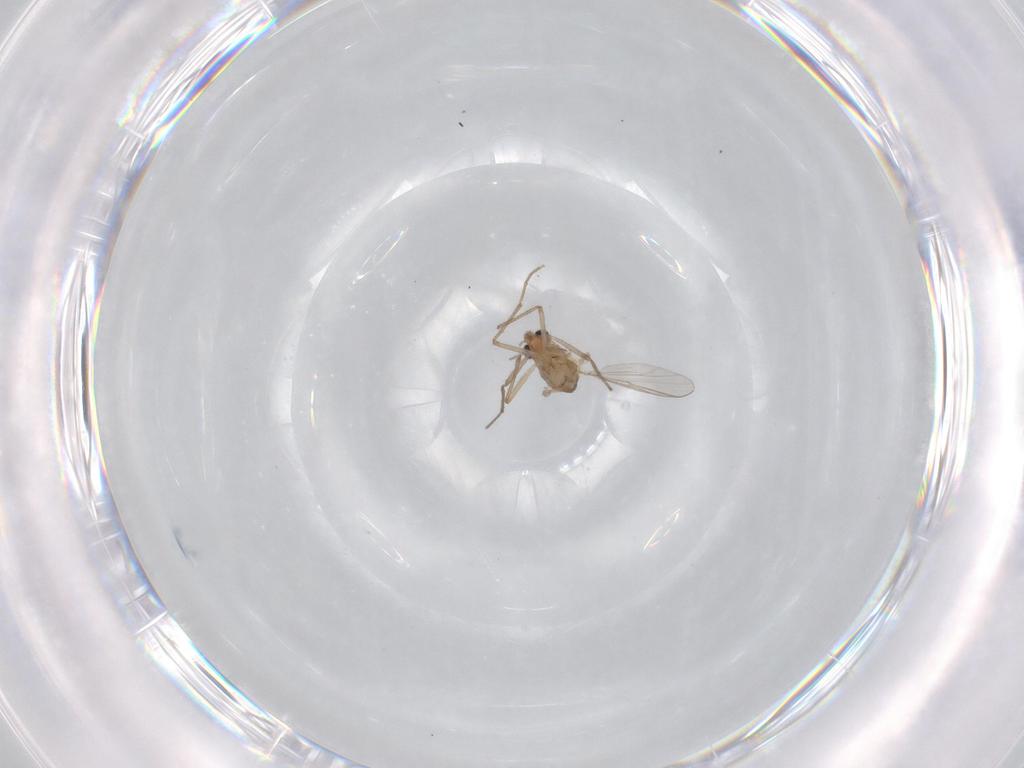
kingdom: Animalia
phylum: Arthropoda
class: Insecta
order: Diptera
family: Chironomidae
